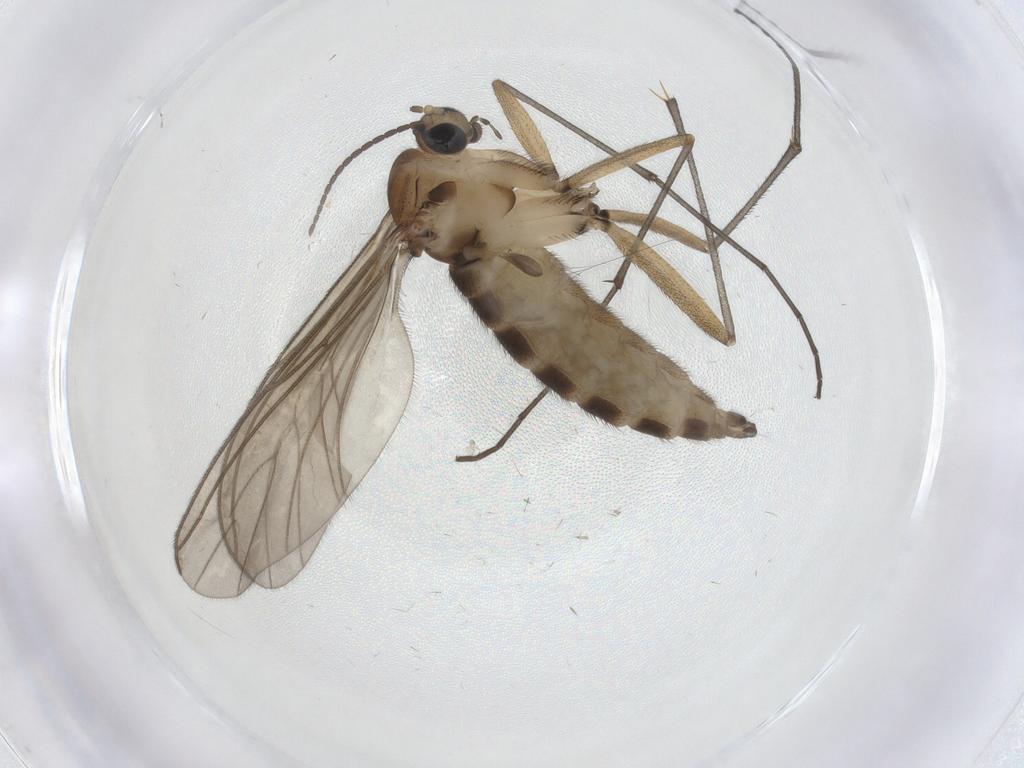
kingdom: Animalia
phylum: Arthropoda
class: Insecta
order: Diptera
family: Sciaridae
